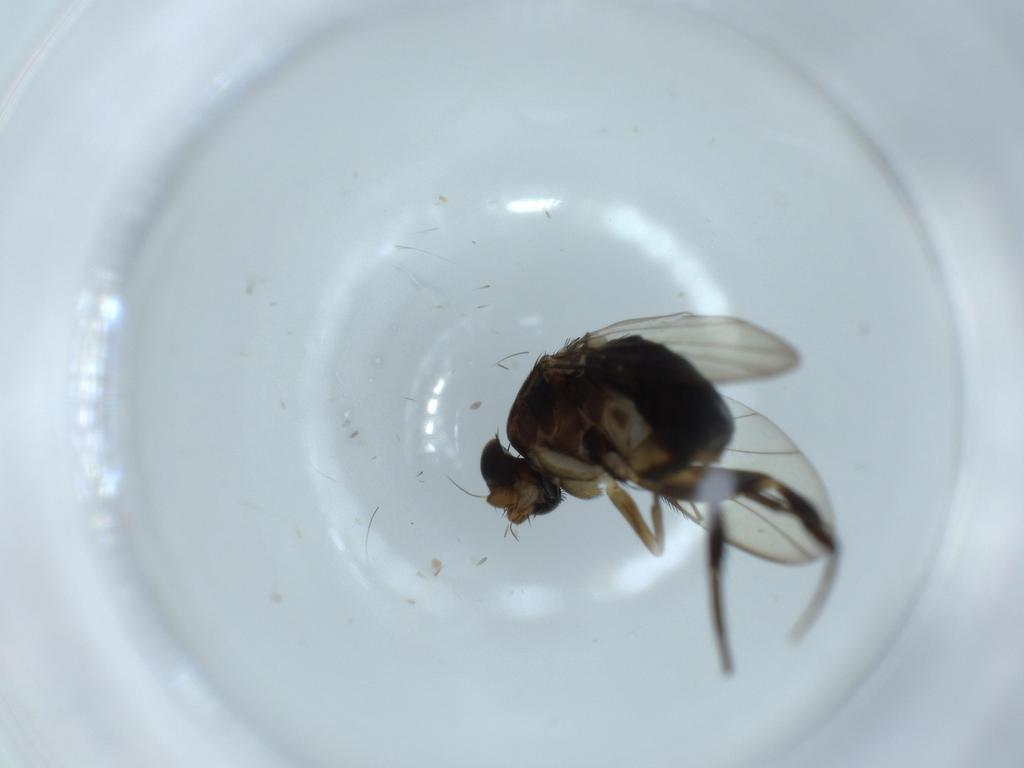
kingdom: Animalia
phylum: Arthropoda
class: Insecta
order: Diptera
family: Phoridae
